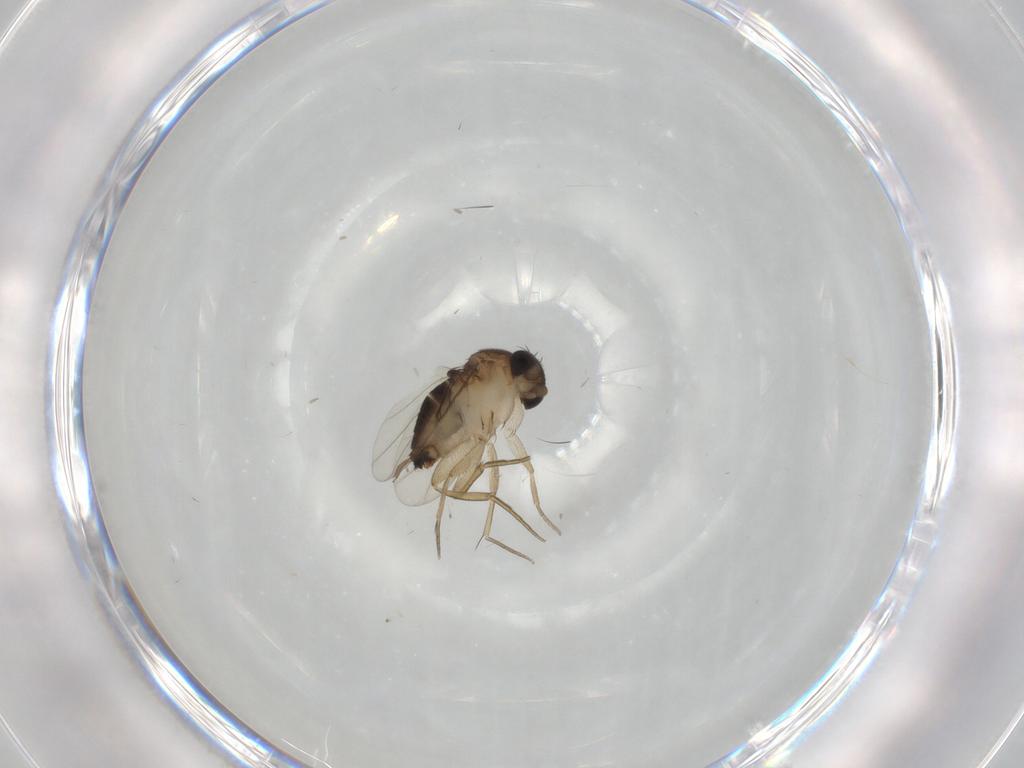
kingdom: Animalia
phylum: Arthropoda
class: Insecta
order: Diptera
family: Phoridae
